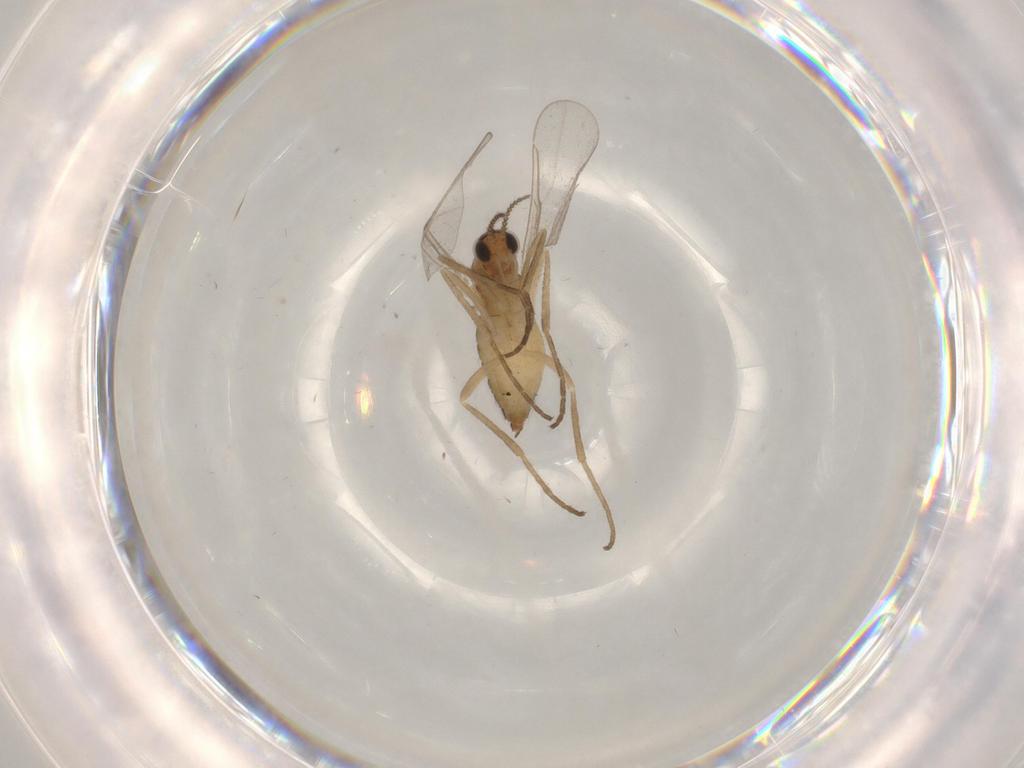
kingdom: Animalia
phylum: Arthropoda
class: Insecta
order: Diptera
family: Cecidomyiidae
